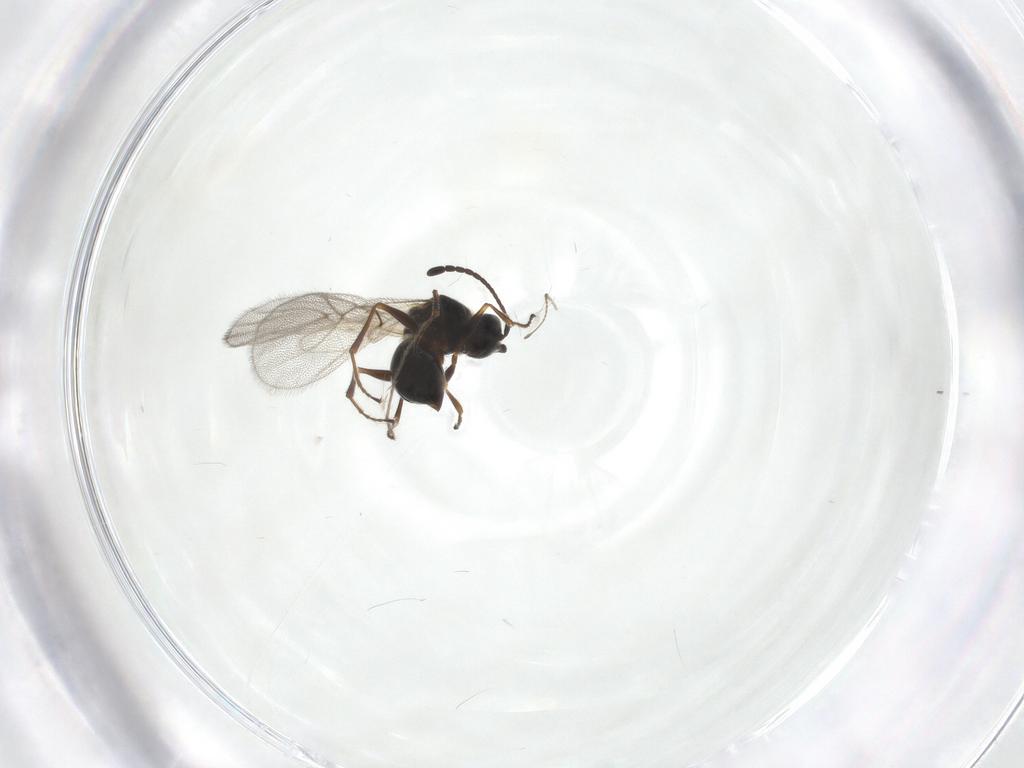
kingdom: Animalia
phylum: Arthropoda
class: Insecta
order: Hymenoptera
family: Figitidae
